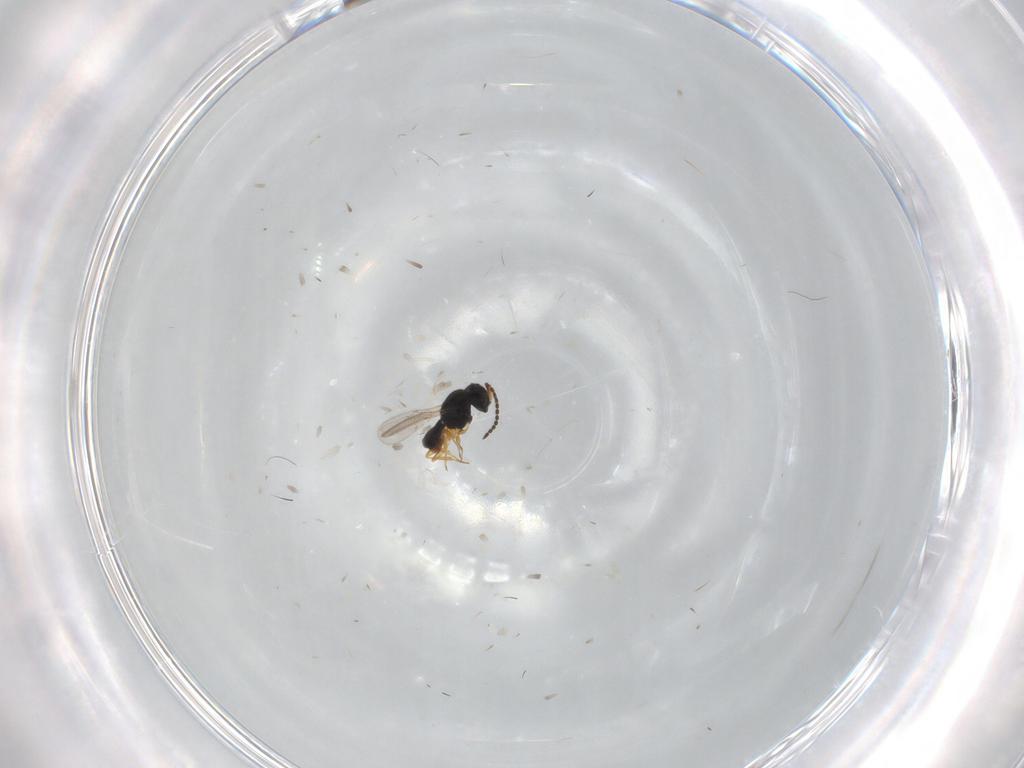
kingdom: Animalia
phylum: Arthropoda
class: Insecta
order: Hymenoptera
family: Scelionidae
